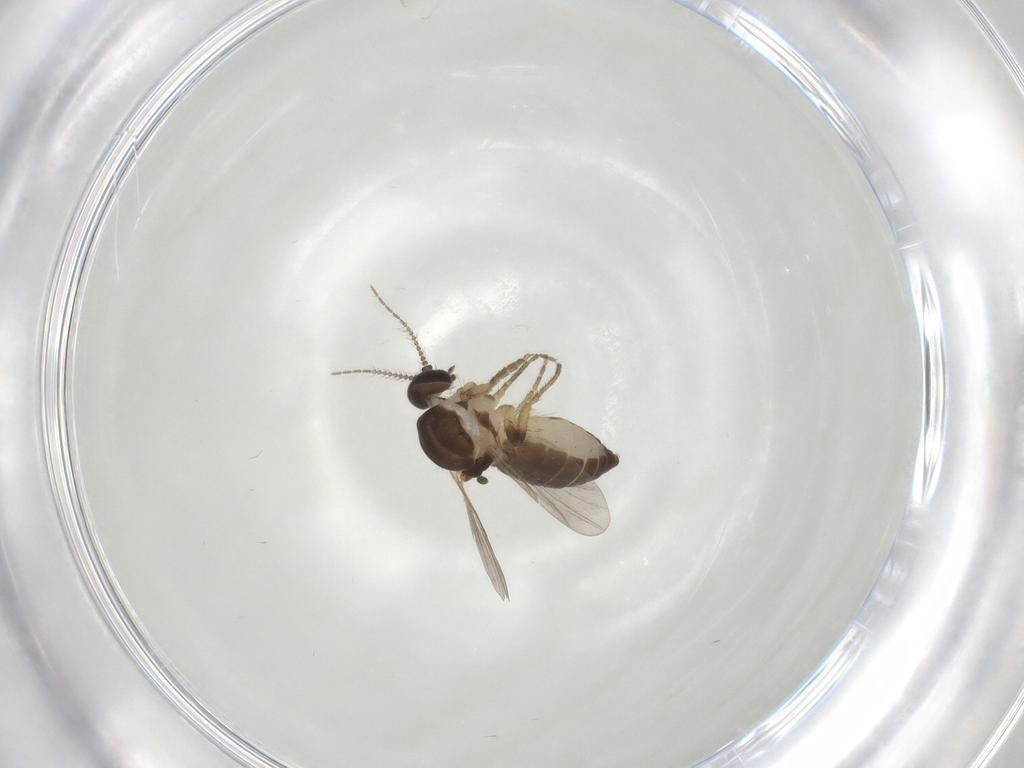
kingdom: Animalia
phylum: Arthropoda
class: Insecta
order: Diptera
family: Ceratopogonidae
